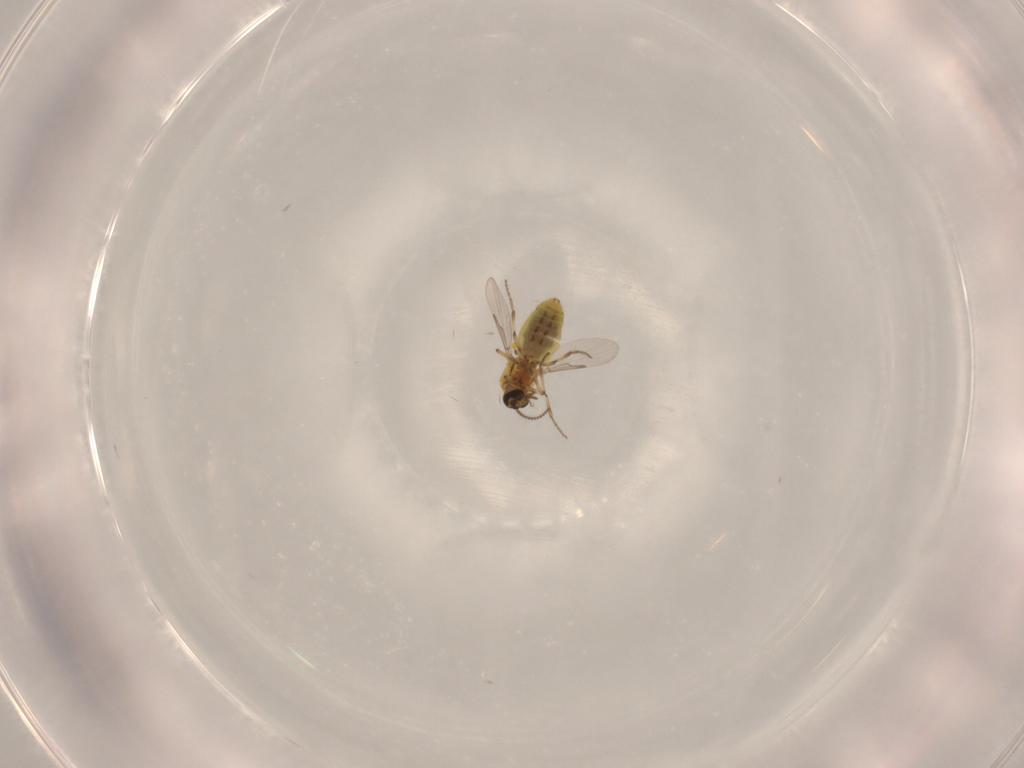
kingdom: Animalia
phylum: Arthropoda
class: Insecta
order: Diptera
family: Ceratopogonidae
